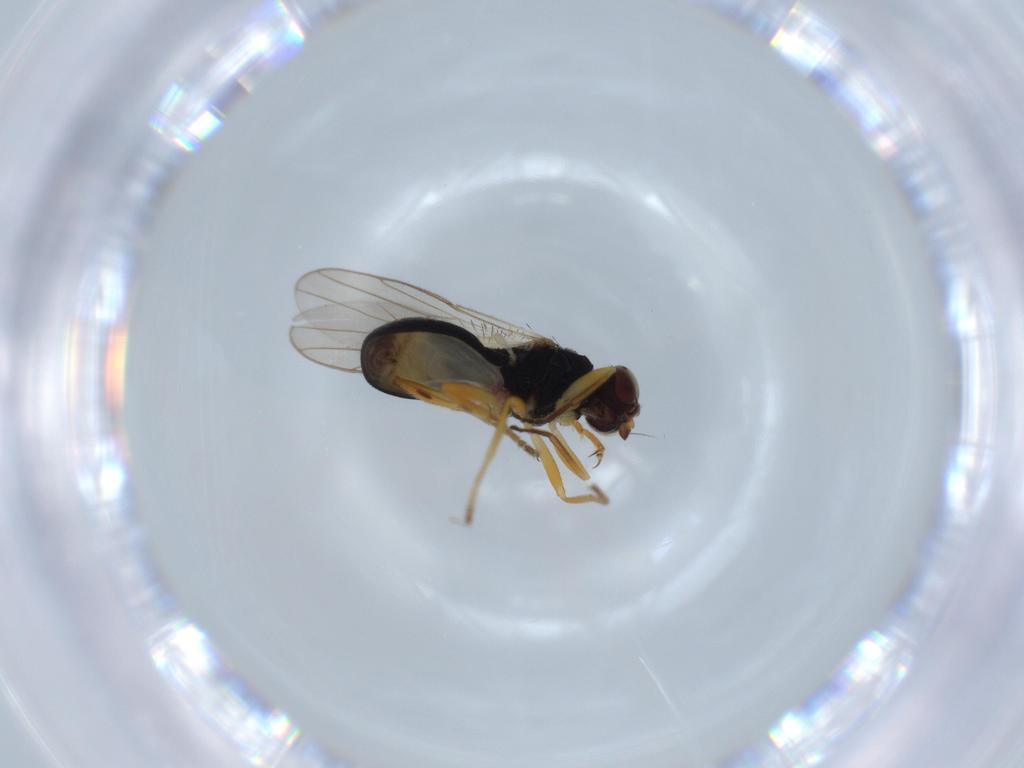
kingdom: Animalia
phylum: Arthropoda
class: Insecta
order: Diptera
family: Chloropidae
